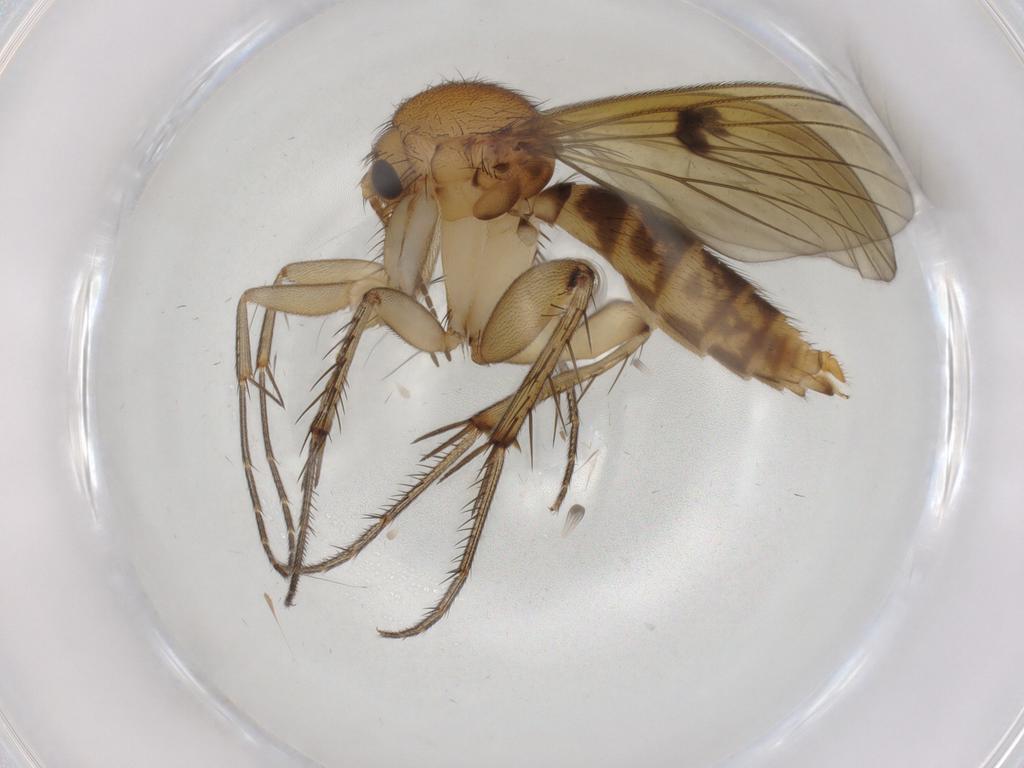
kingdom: Animalia
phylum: Arthropoda
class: Insecta
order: Diptera
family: Mycetophilidae
